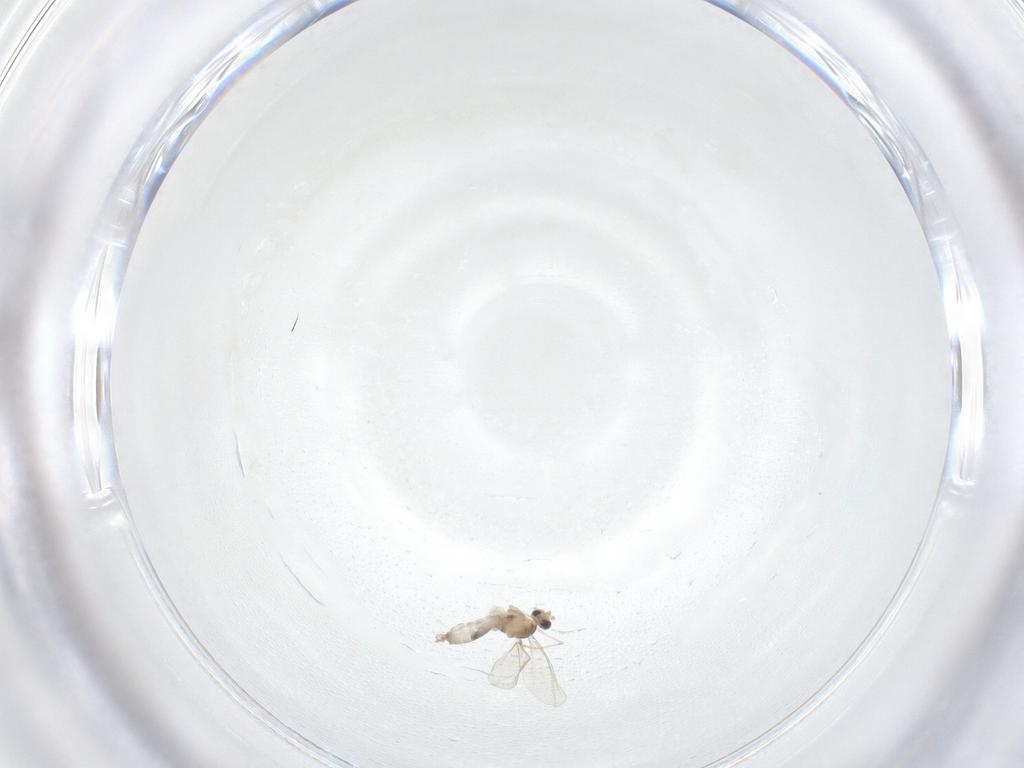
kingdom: Animalia
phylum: Arthropoda
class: Insecta
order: Diptera
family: Cecidomyiidae
